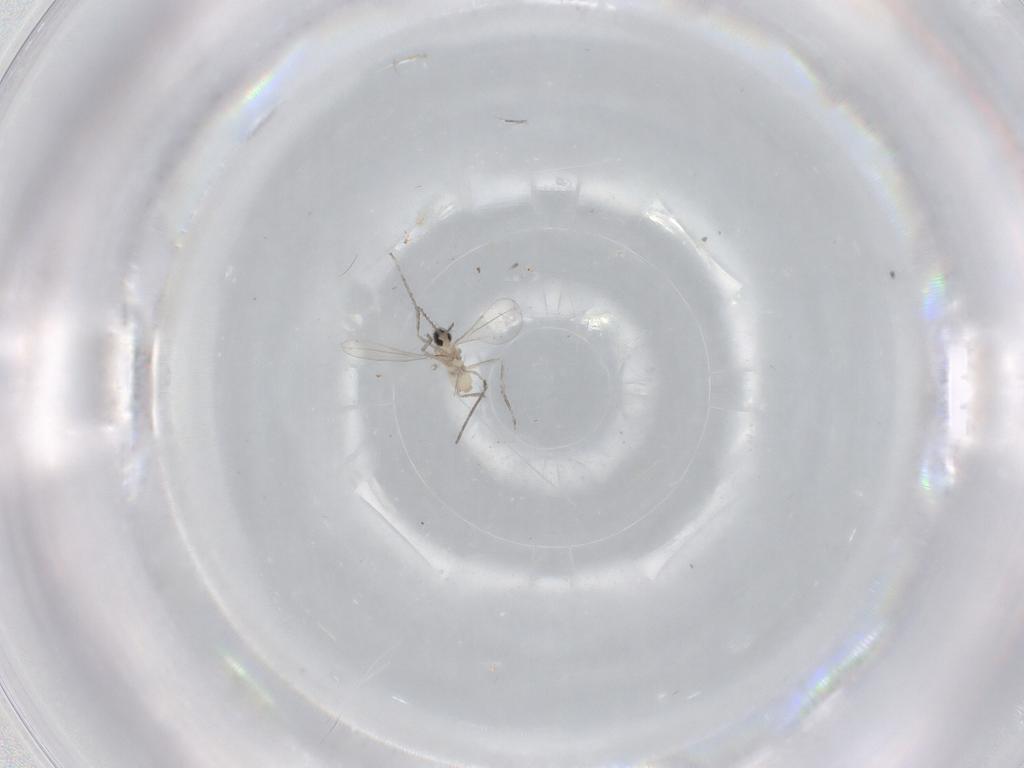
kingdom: Animalia
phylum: Arthropoda
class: Insecta
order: Diptera
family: Cecidomyiidae
